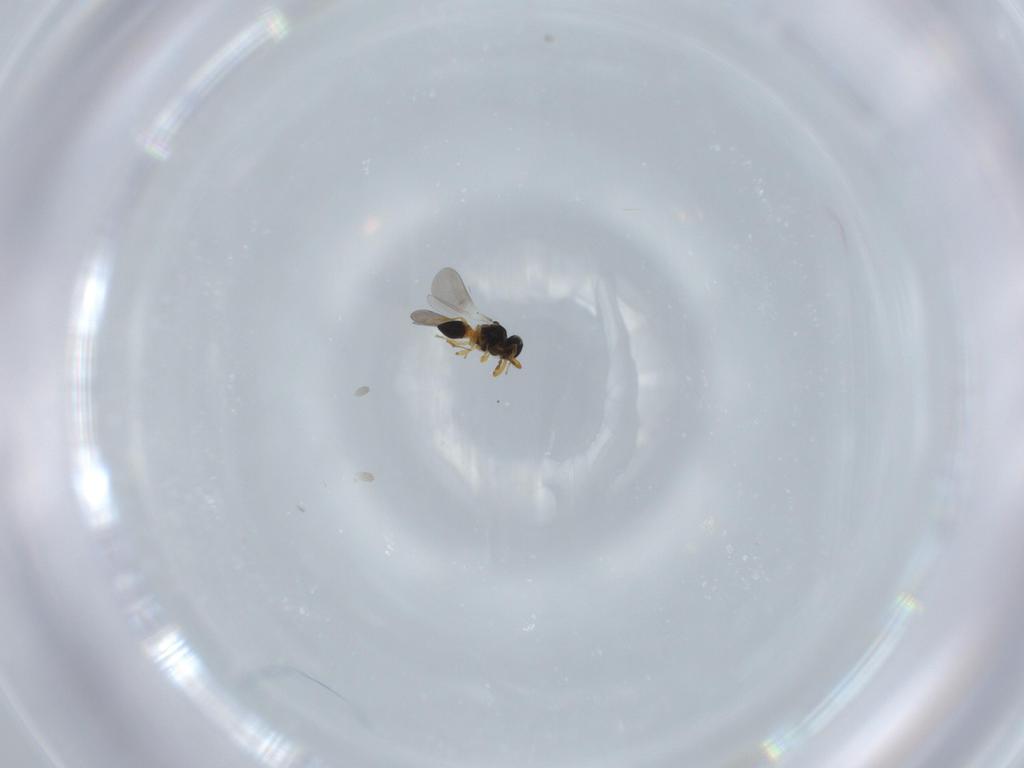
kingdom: Animalia
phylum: Arthropoda
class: Insecta
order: Hymenoptera
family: Platygastridae
